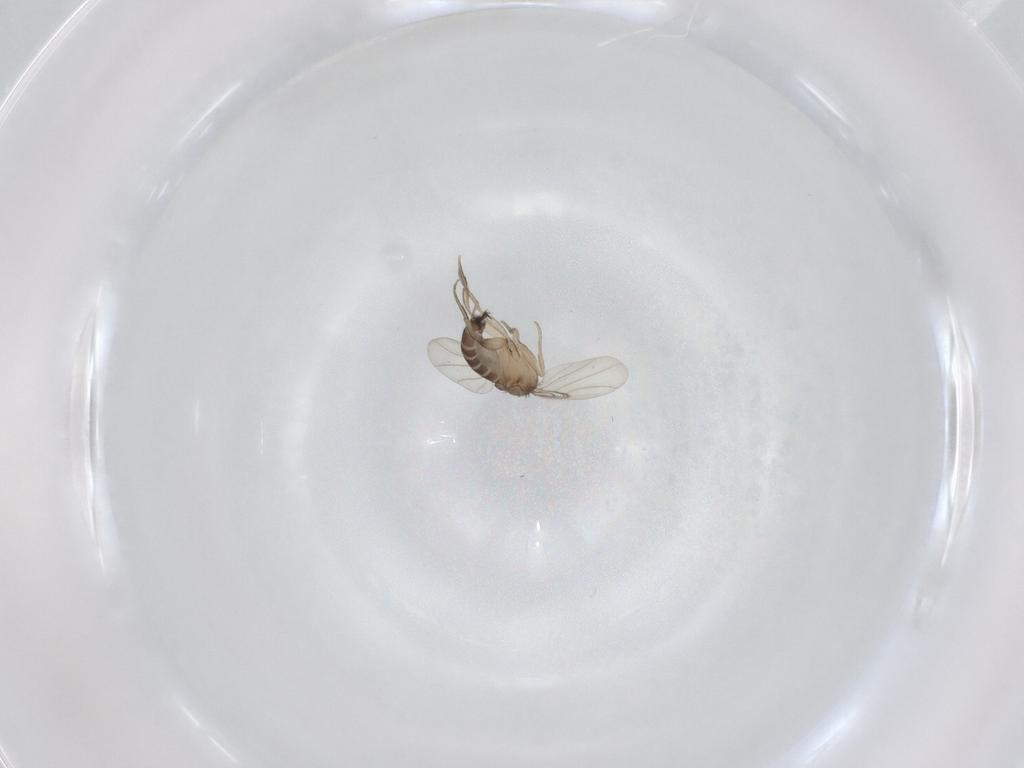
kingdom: Animalia
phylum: Arthropoda
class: Insecta
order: Diptera
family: Phoridae
